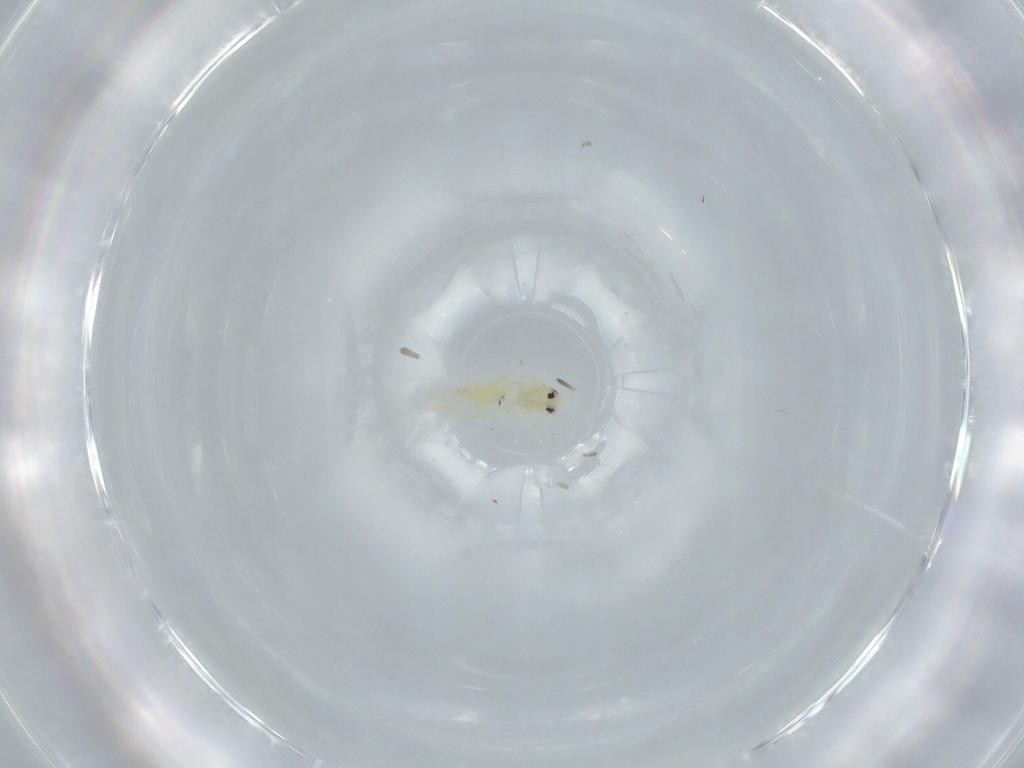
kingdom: Animalia
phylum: Arthropoda
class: Insecta
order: Hemiptera
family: Aleyrodidae
